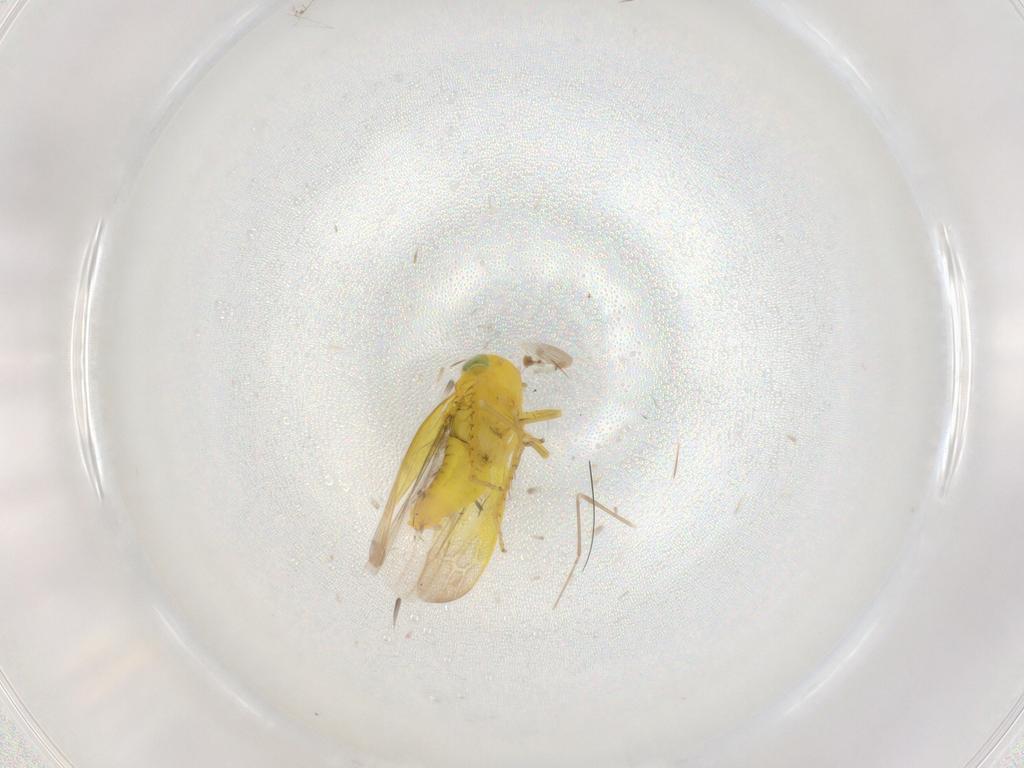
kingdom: Animalia
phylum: Arthropoda
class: Insecta
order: Hemiptera
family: Cicadellidae
